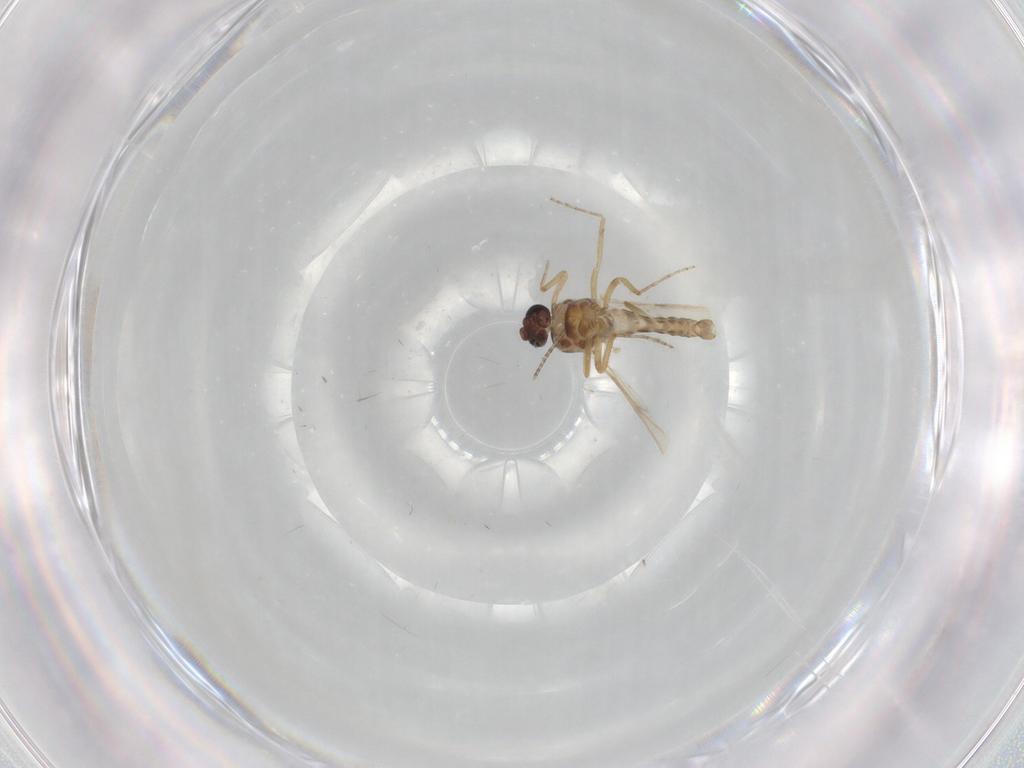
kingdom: Animalia
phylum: Arthropoda
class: Insecta
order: Diptera
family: Ceratopogonidae
